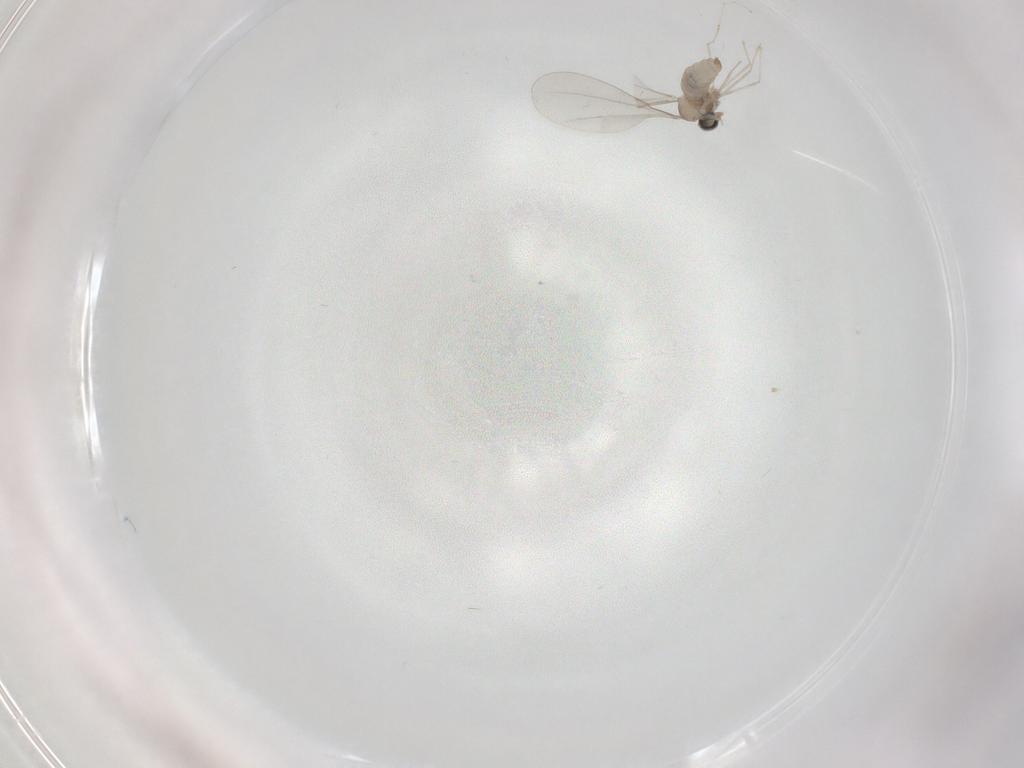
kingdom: Animalia
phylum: Arthropoda
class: Insecta
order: Diptera
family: Cecidomyiidae
